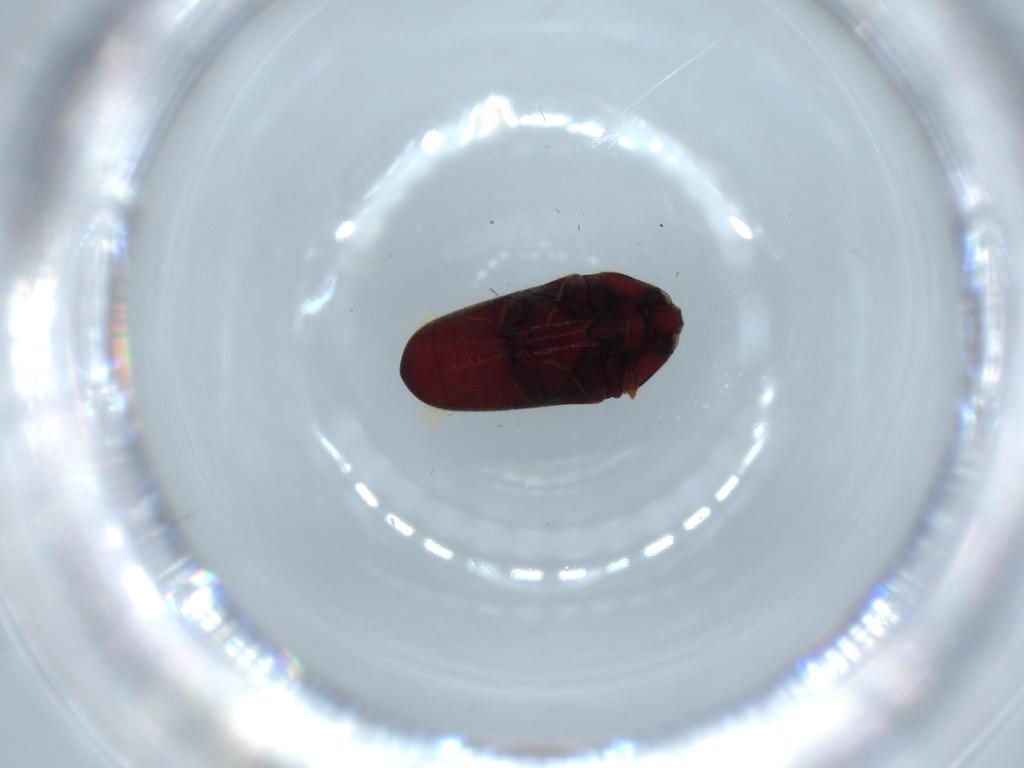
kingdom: Animalia
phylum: Arthropoda
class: Insecta
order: Coleoptera
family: Throscidae
